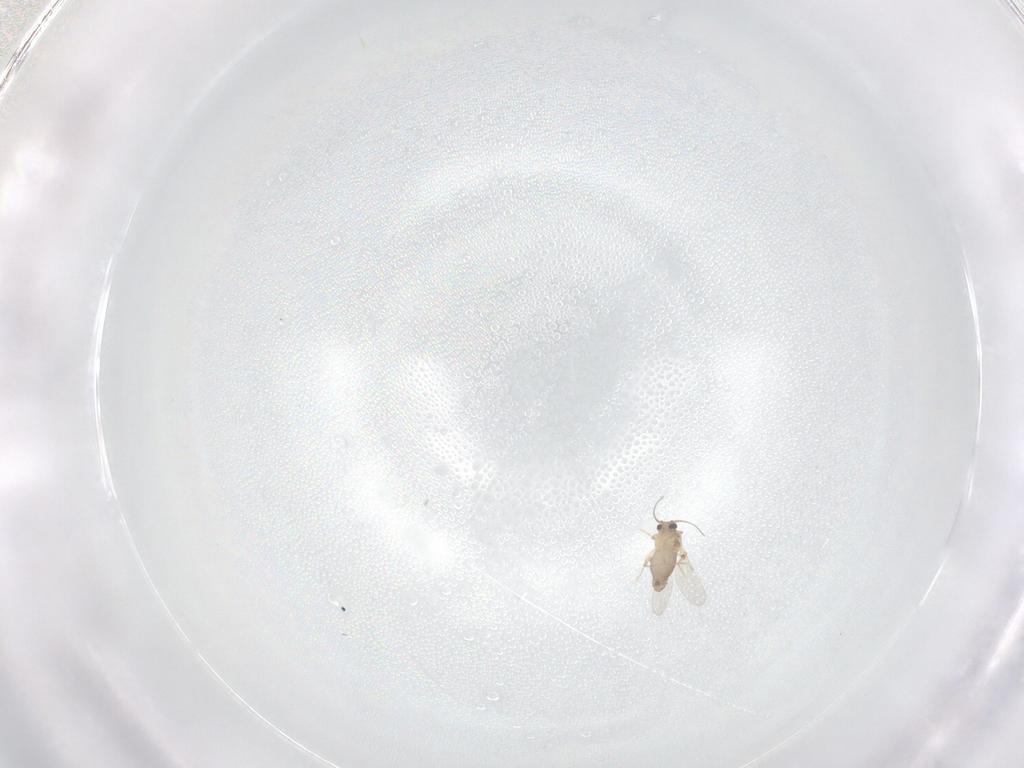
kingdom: Animalia
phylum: Arthropoda
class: Insecta
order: Diptera
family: Ceratopogonidae
